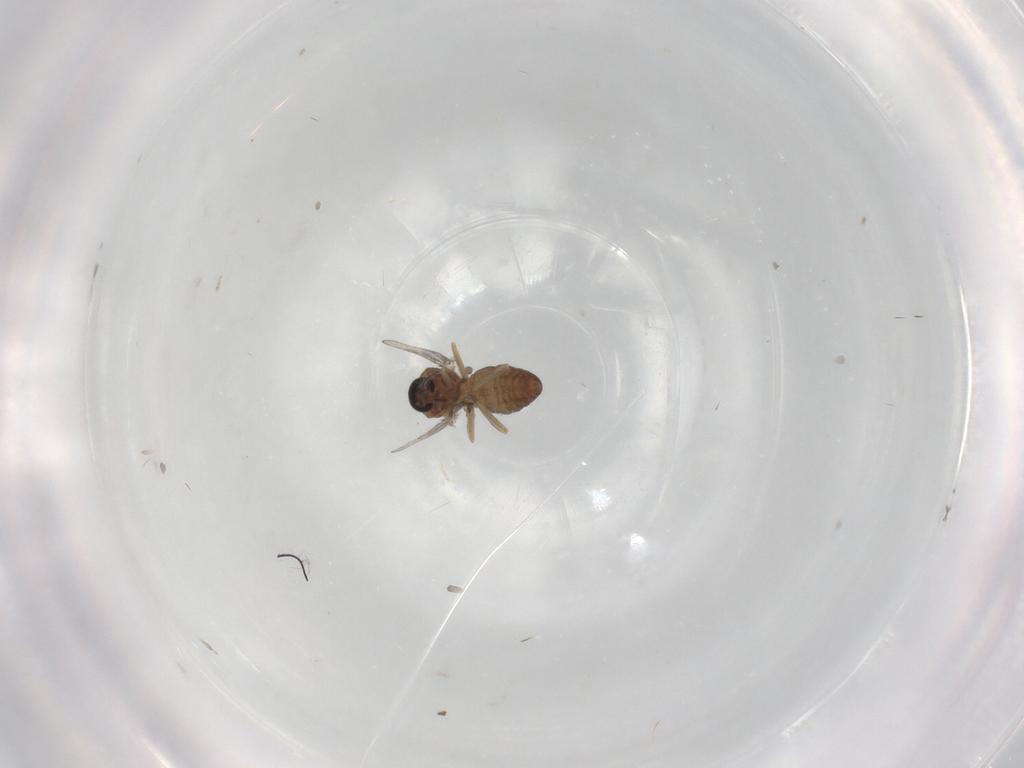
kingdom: Animalia
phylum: Arthropoda
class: Insecta
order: Diptera
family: Ceratopogonidae
